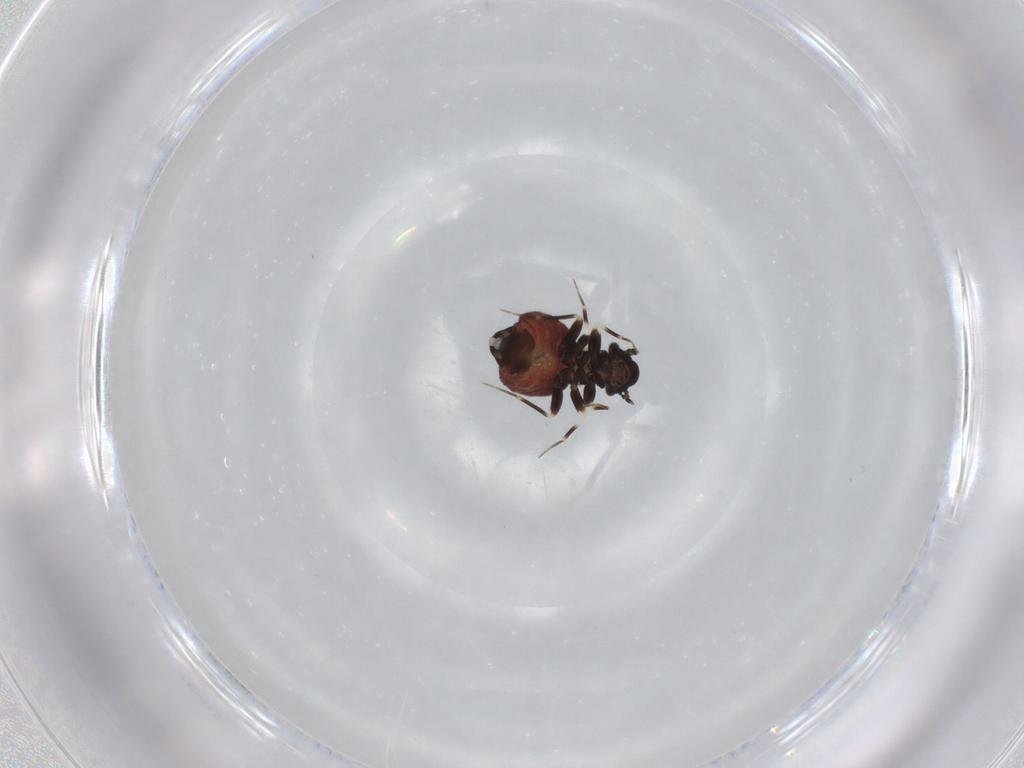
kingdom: Animalia
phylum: Arthropoda
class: Insecta
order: Psocodea
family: Lepidopsocidae
